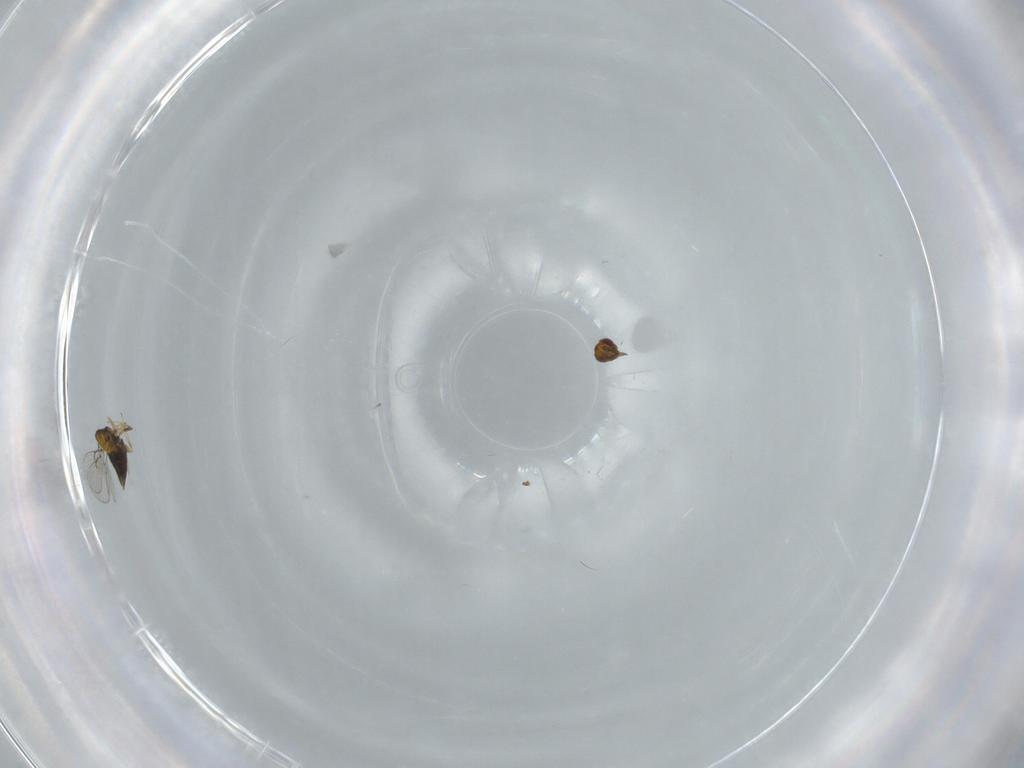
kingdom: Animalia
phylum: Arthropoda
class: Insecta
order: Hymenoptera
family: Trichogrammatidae
